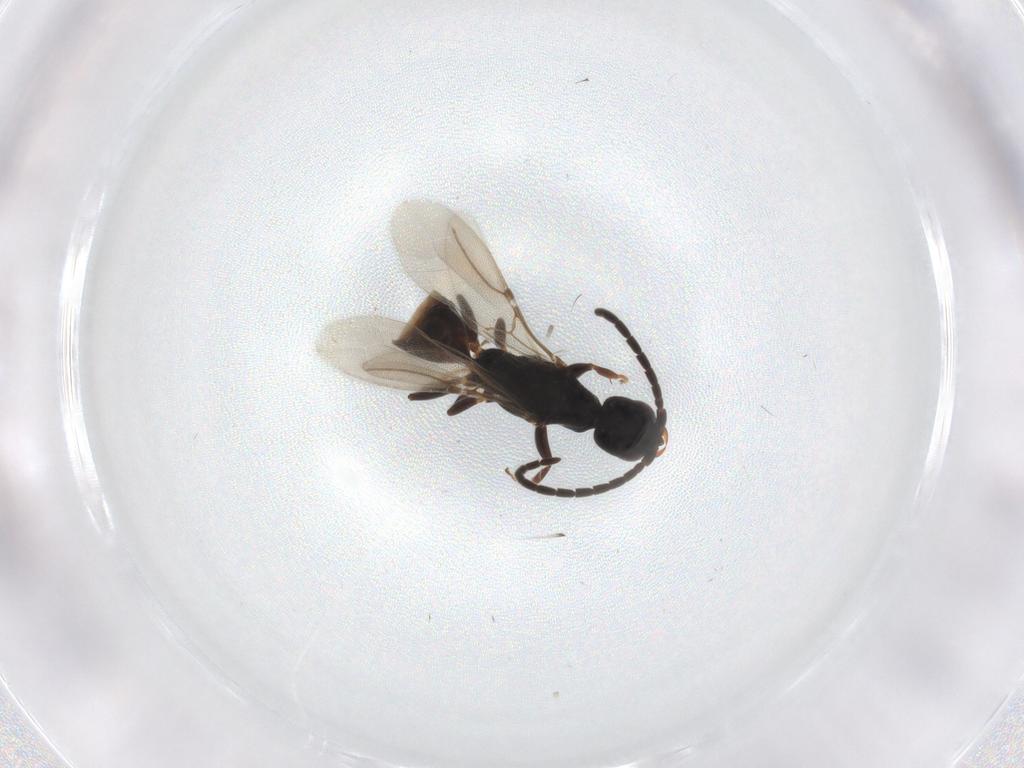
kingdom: Animalia
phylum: Arthropoda
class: Insecta
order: Hymenoptera
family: Bethylidae
